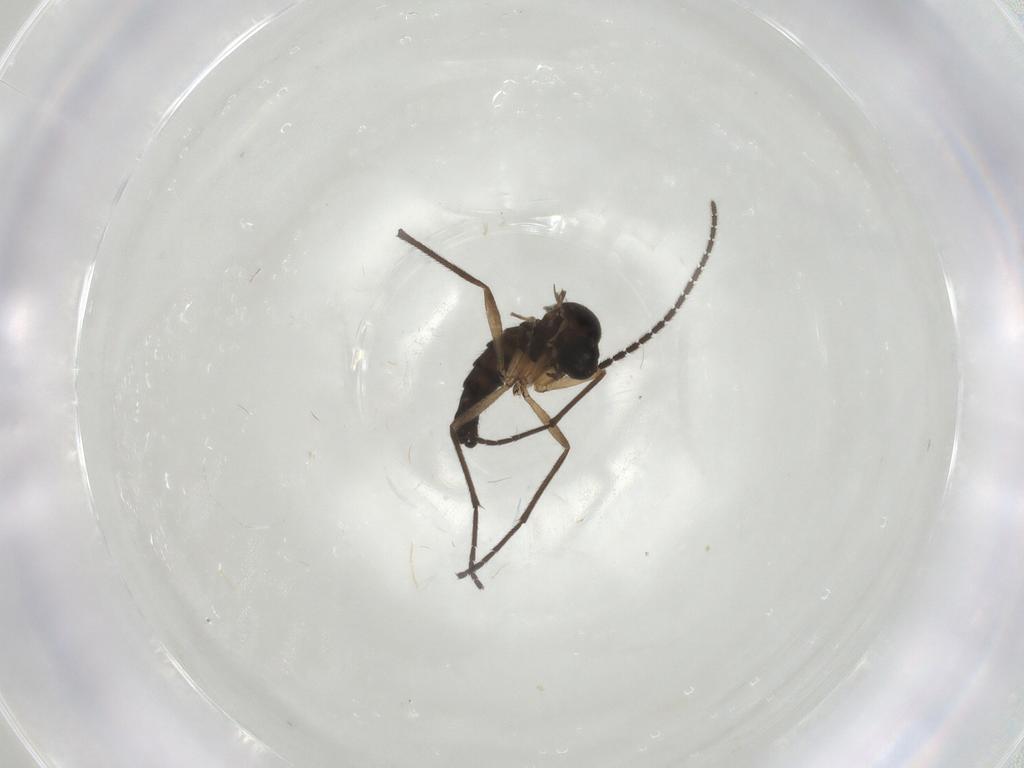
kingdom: Animalia
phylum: Arthropoda
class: Insecta
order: Diptera
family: Sciaridae
